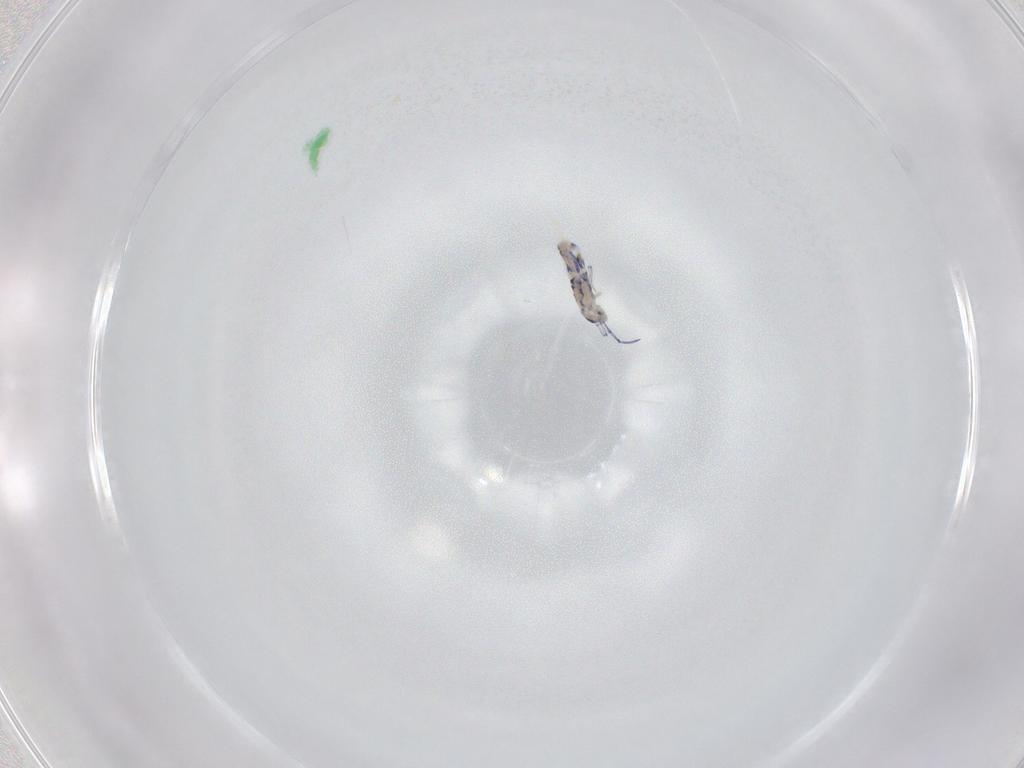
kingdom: Animalia
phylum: Arthropoda
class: Collembola
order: Entomobryomorpha
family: Entomobryidae
